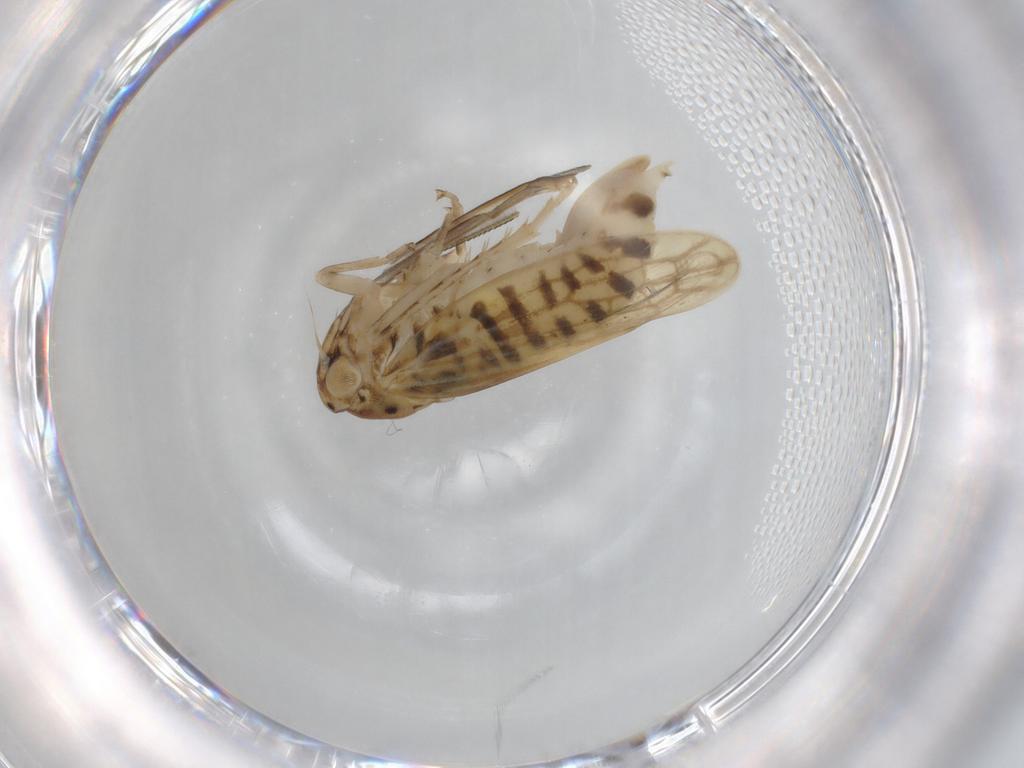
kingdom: Animalia
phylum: Arthropoda
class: Insecta
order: Hemiptera
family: Cicadellidae
